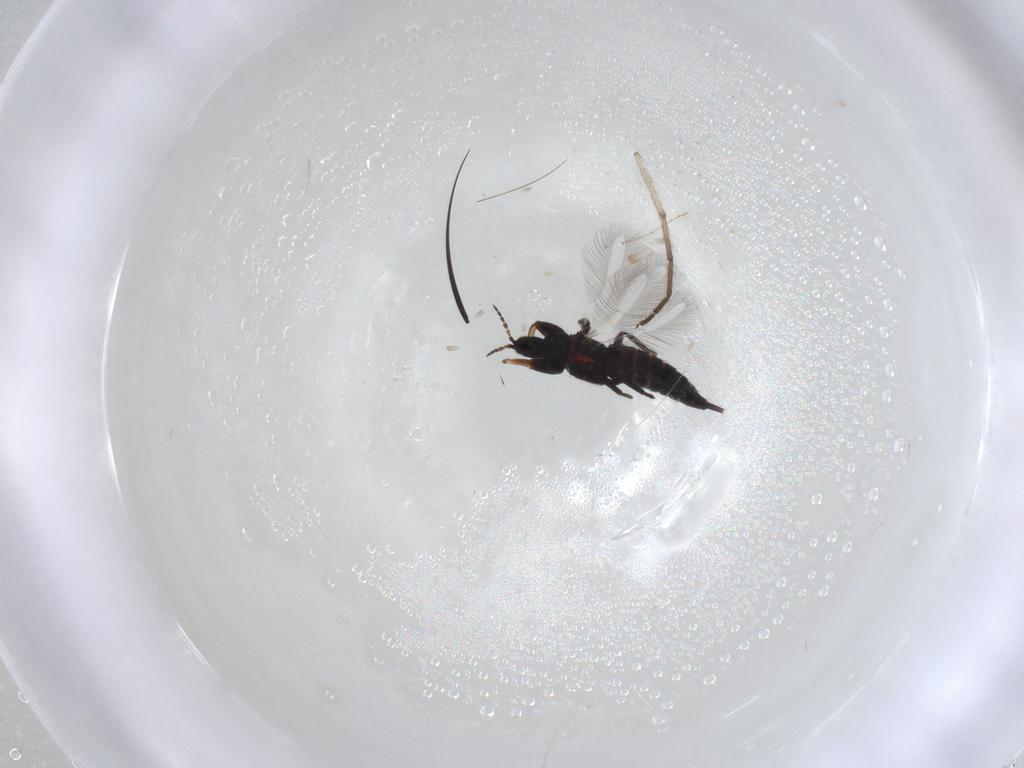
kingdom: Animalia
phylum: Arthropoda
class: Insecta
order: Thysanoptera
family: Phlaeothripidae
